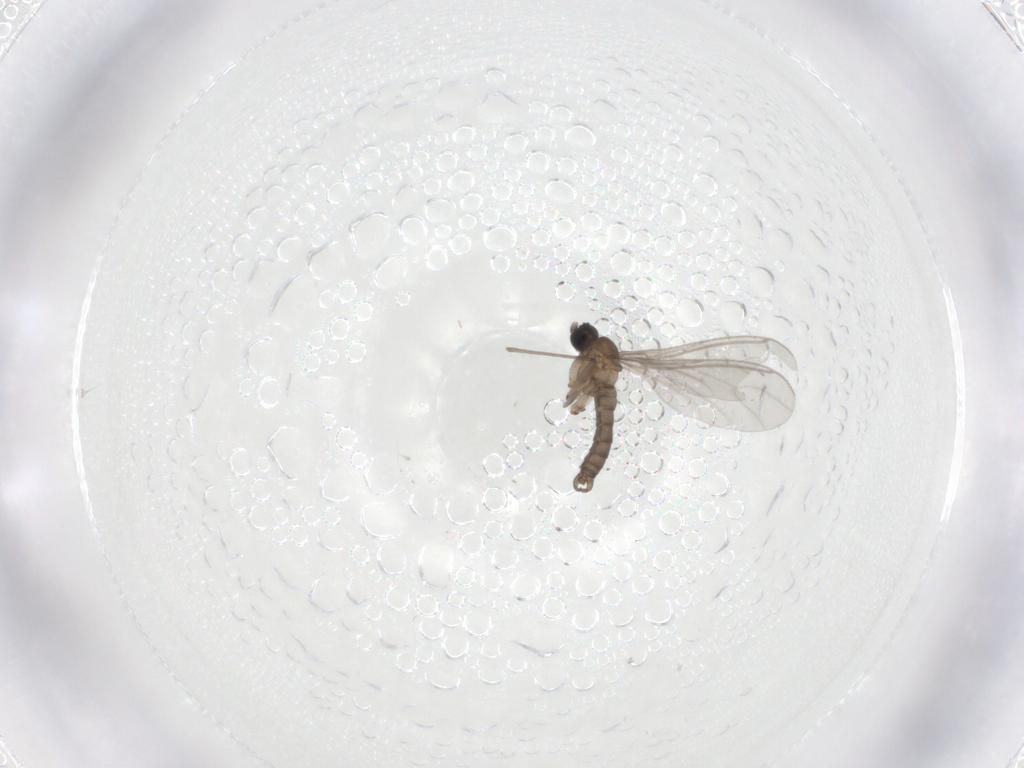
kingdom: Animalia
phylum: Arthropoda
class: Insecta
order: Diptera
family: Sciaridae
